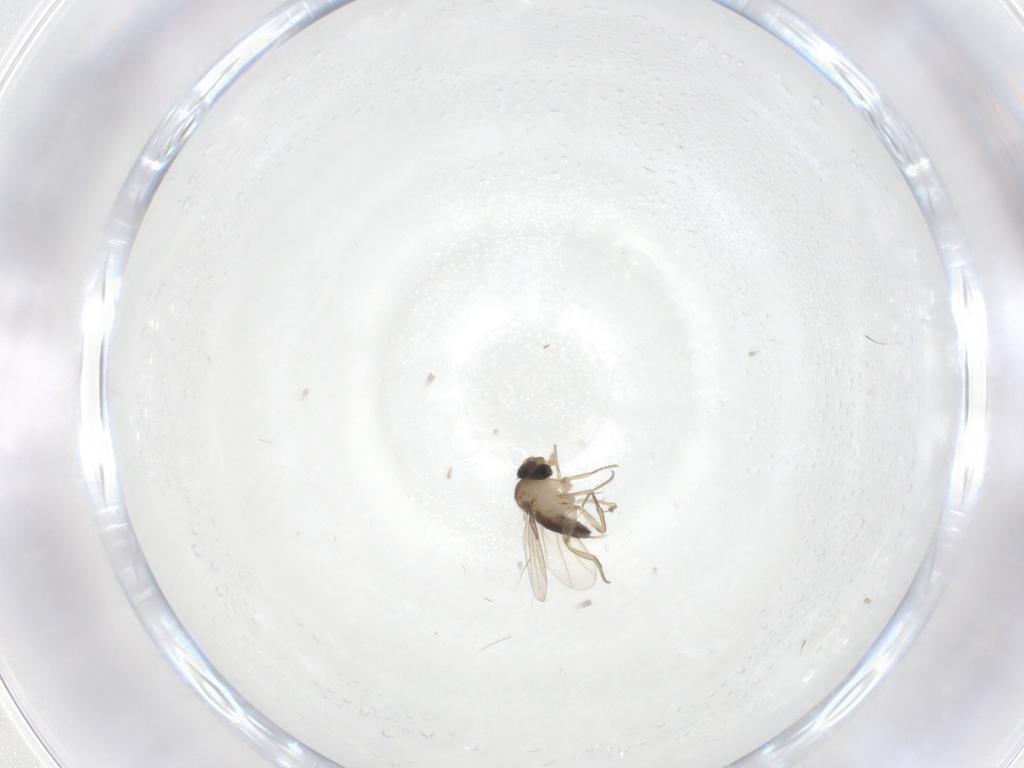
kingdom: Animalia
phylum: Arthropoda
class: Insecta
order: Diptera
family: Phoridae
